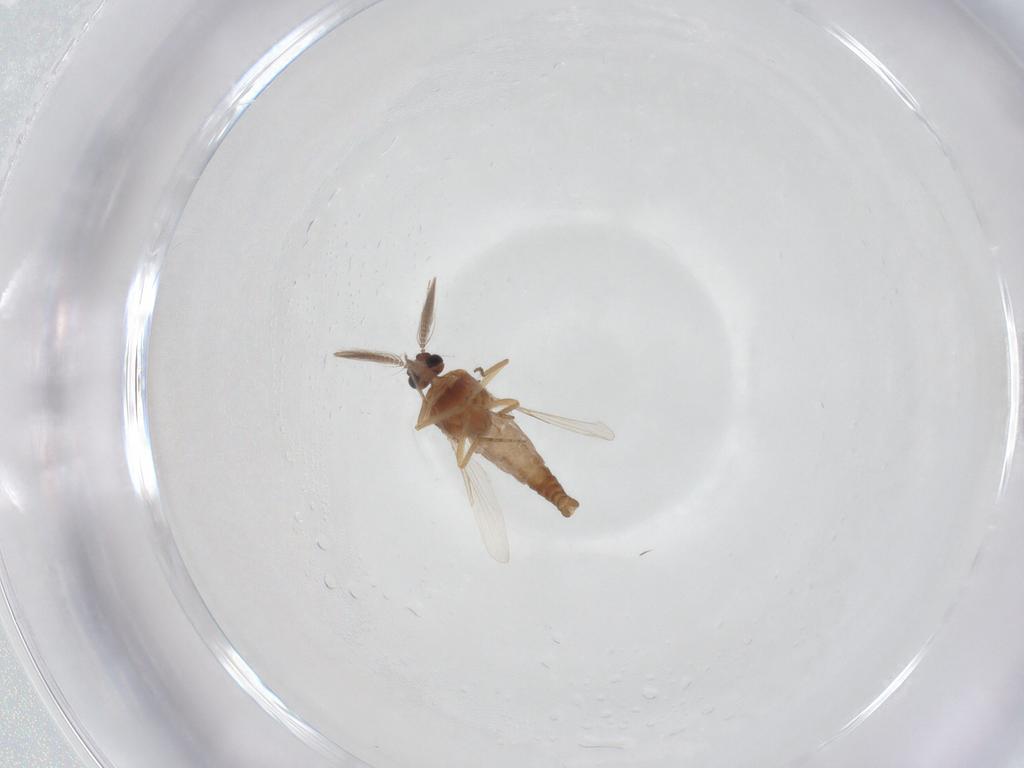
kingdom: Animalia
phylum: Arthropoda
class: Insecta
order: Diptera
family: Ceratopogonidae
